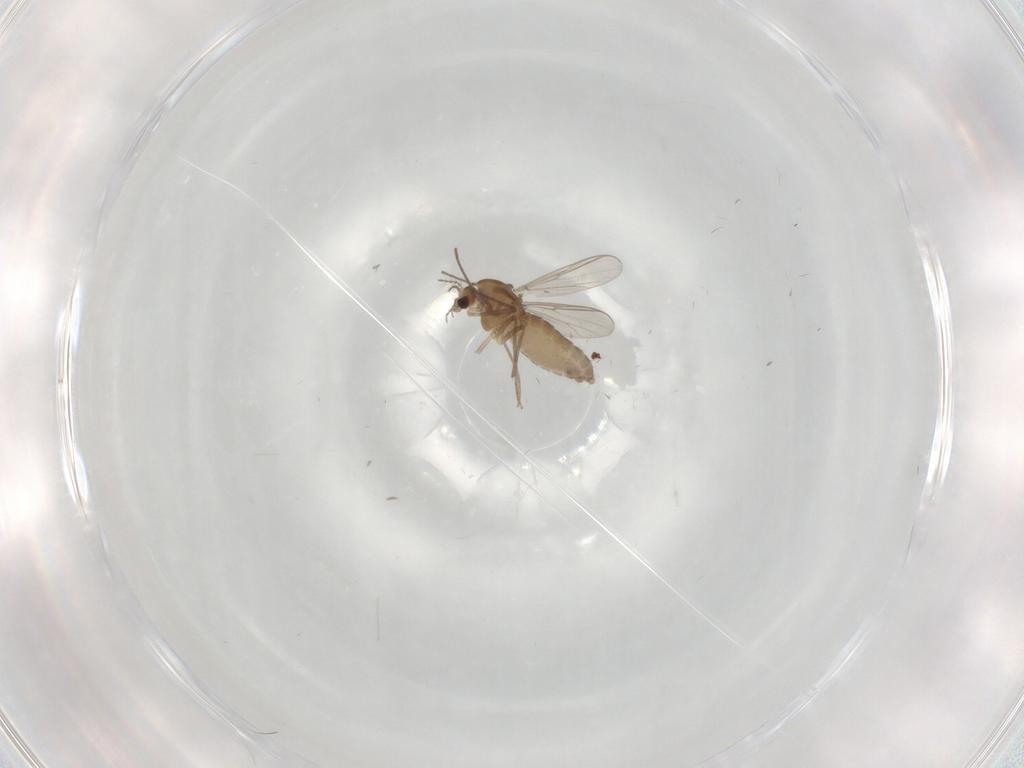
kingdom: Animalia
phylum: Arthropoda
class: Insecta
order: Diptera
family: Chironomidae
